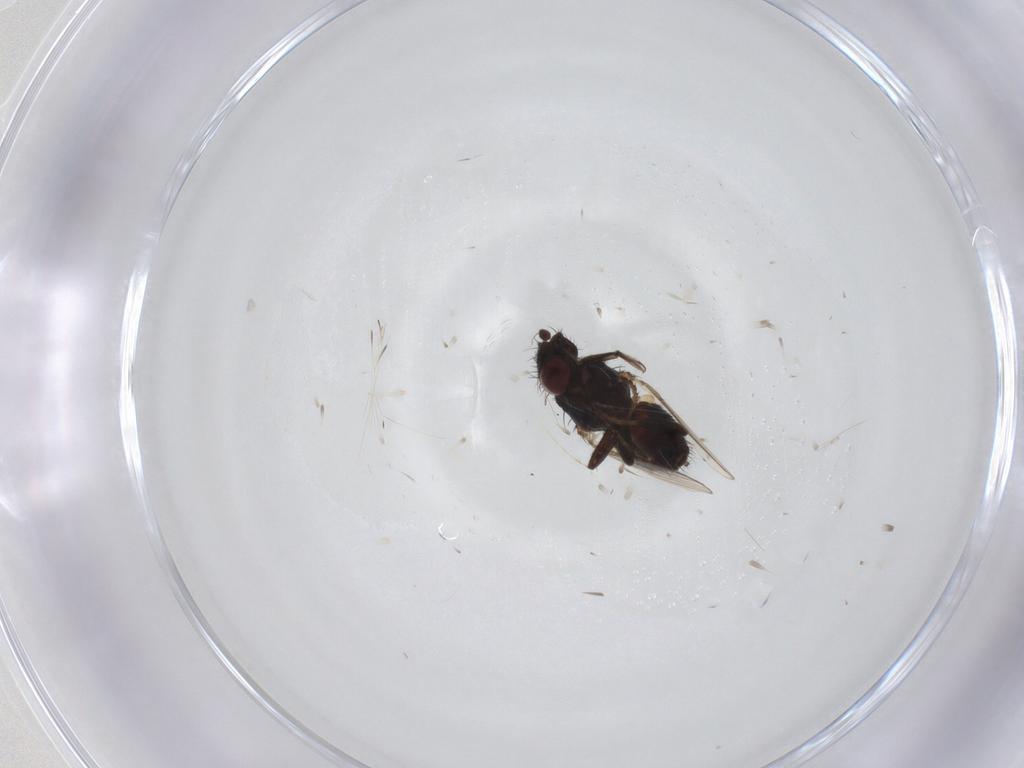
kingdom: Animalia
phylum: Arthropoda
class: Insecta
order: Diptera
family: Milichiidae
